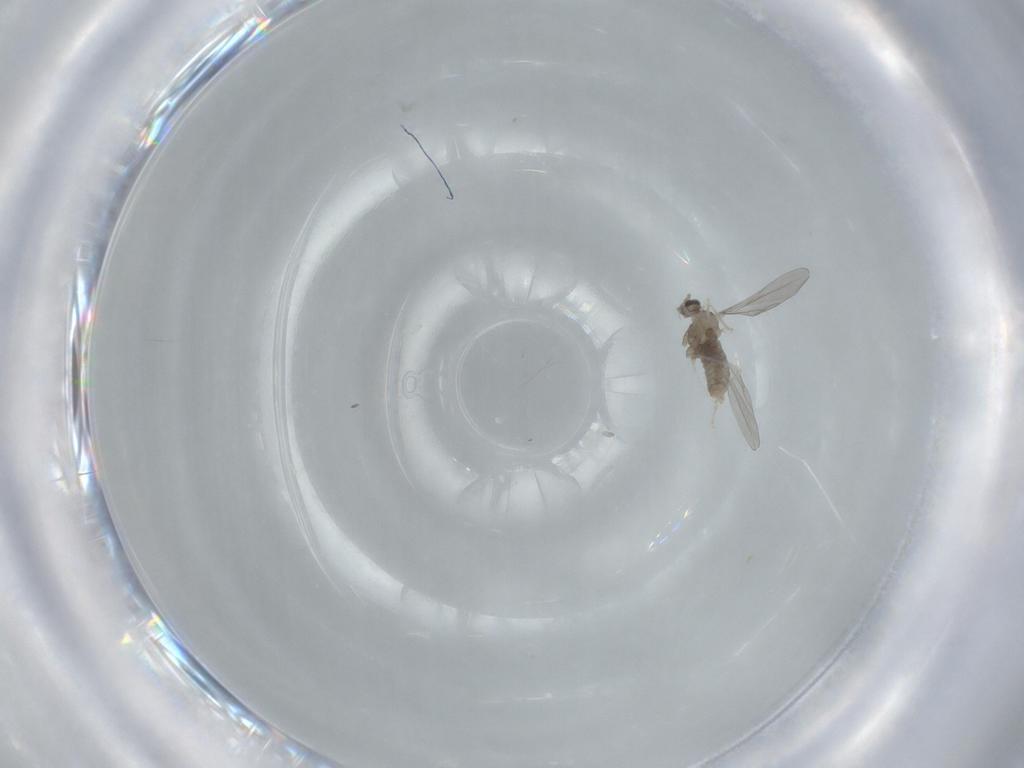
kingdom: Animalia
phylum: Arthropoda
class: Insecta
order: Diptera
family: Cecidomyiidae
